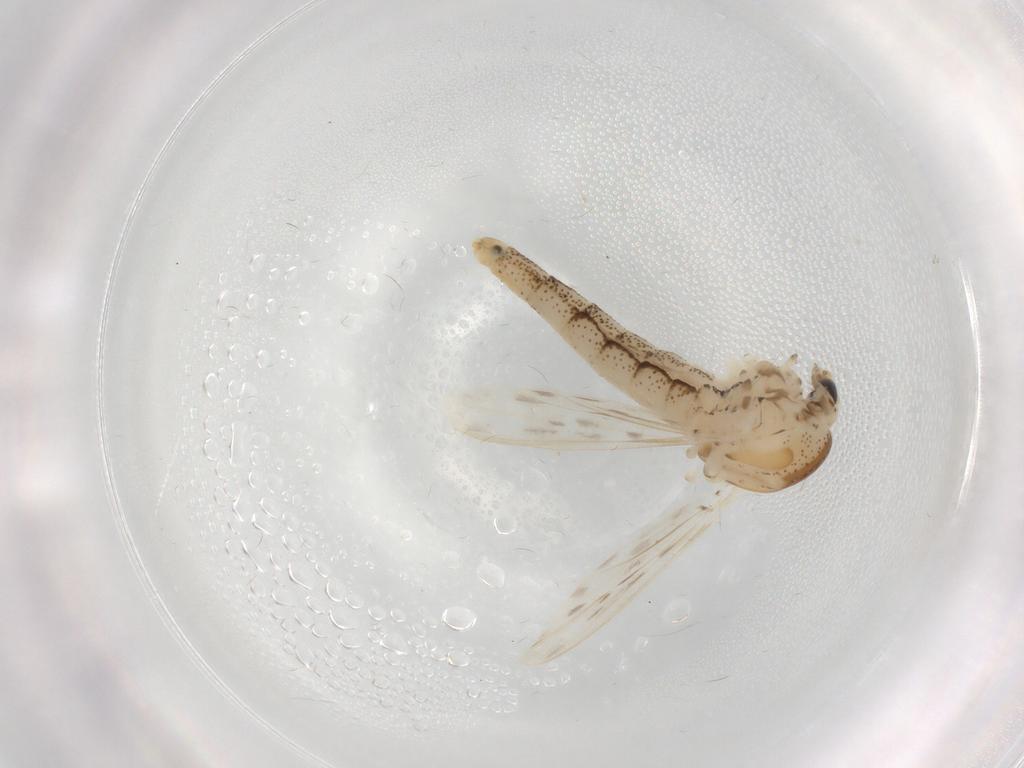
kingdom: Animalia
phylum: Arthropoda
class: Insecta
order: Diptera
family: Chaoboridae
